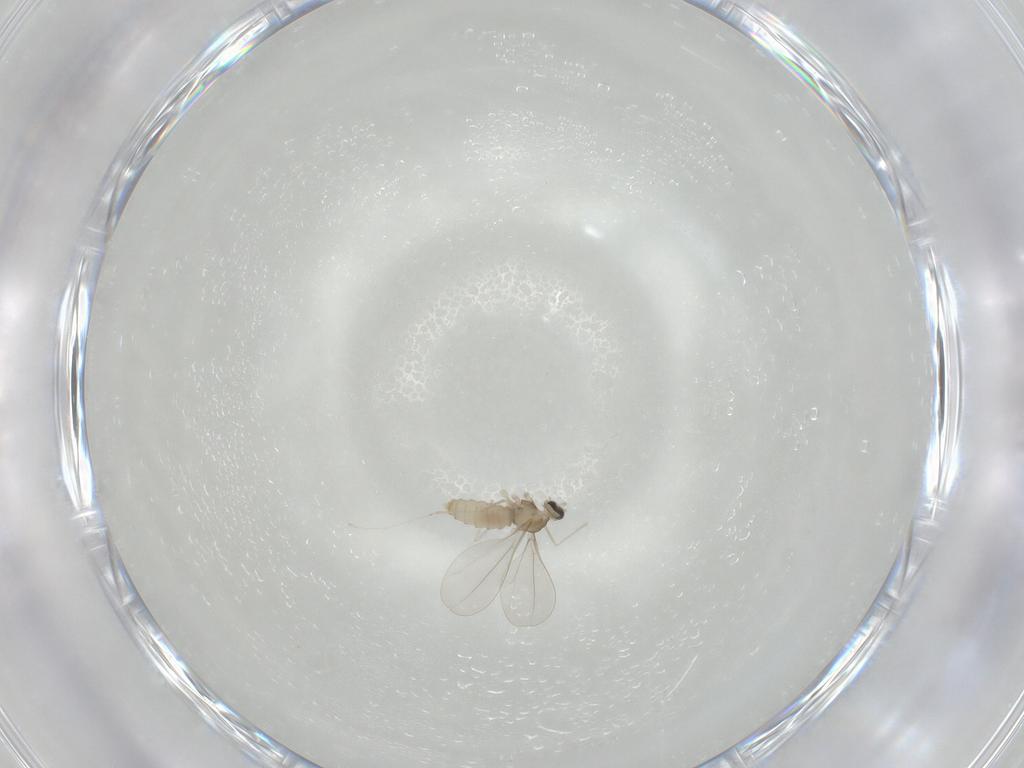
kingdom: Animalia
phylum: Arthropoda
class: Insecta
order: Diptera
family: Cecidomyiidae
